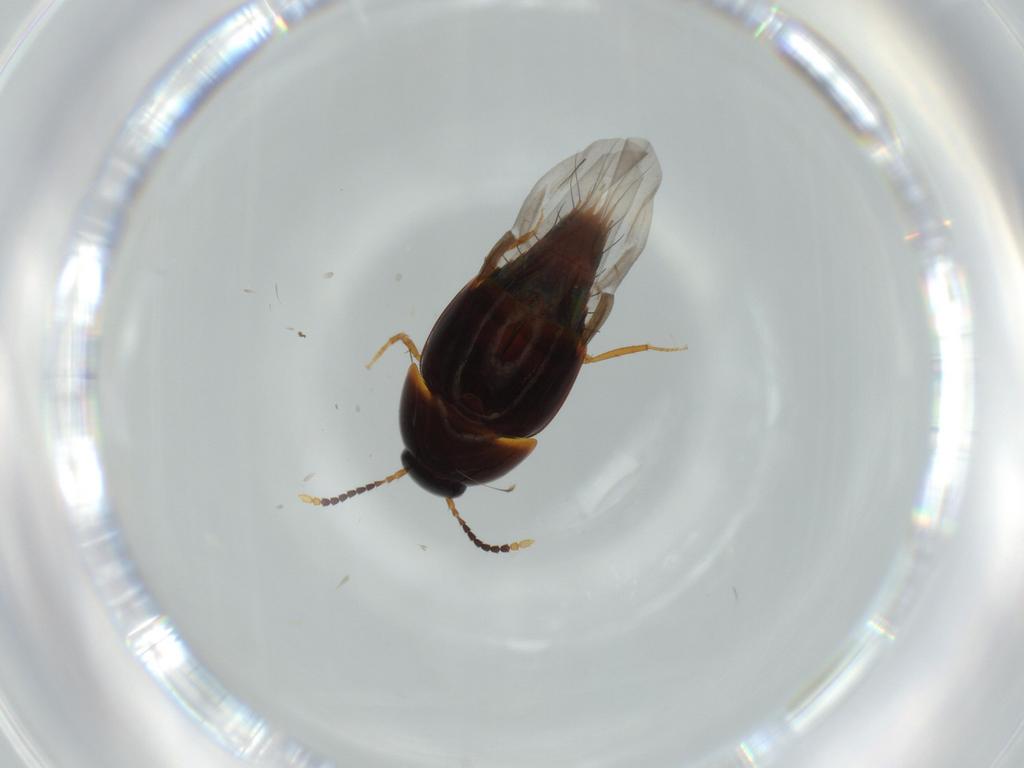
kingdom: Animalia
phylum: Arthropoda
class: Insecta
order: Coleoptera
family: Staphylinidae
